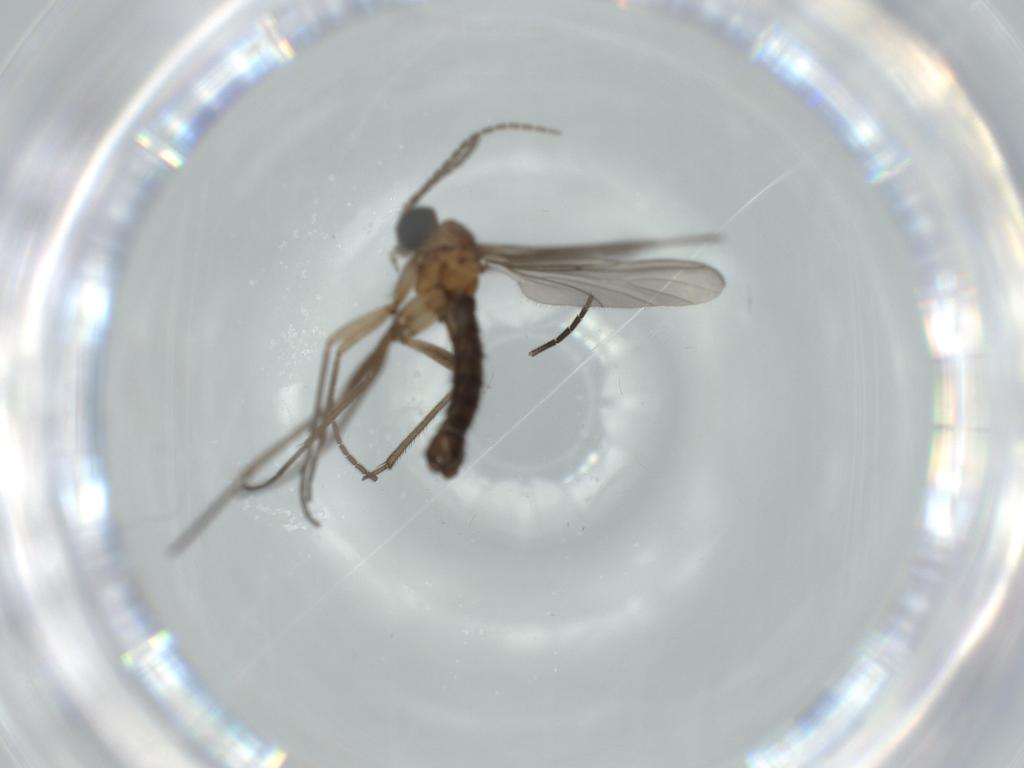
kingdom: Animalia
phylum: Arthropoda
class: Insecta
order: Diptera
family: Sciaridae
